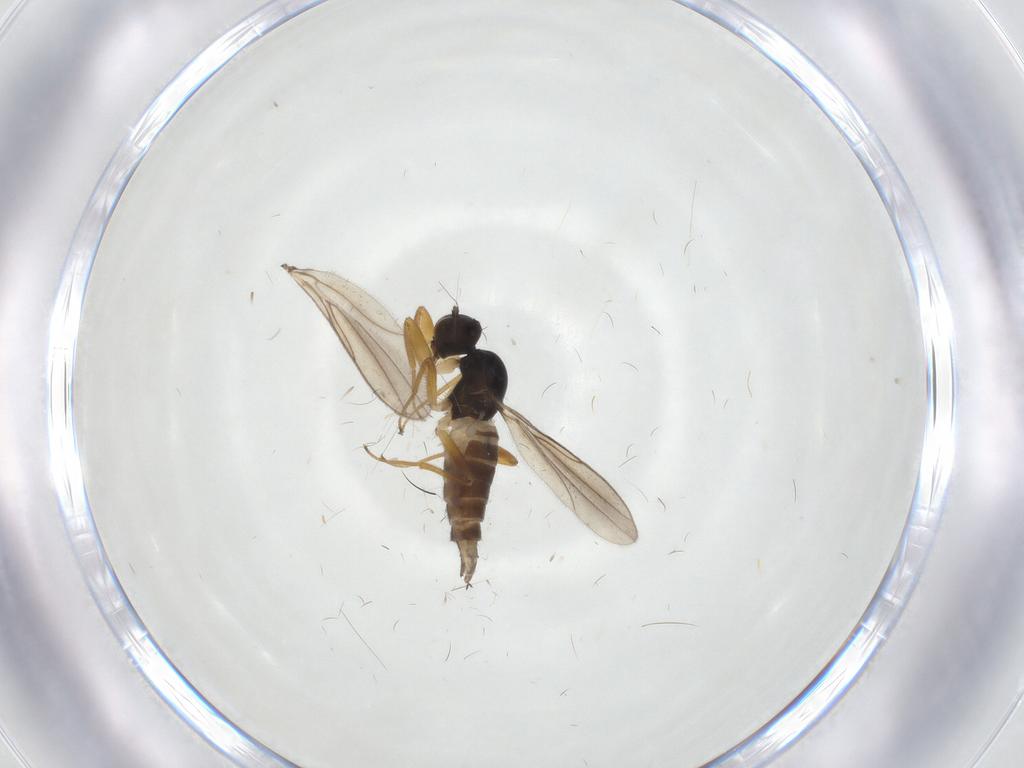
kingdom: Animalia
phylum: Arthropoda
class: Insecta
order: Diptera
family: Hybotidae
